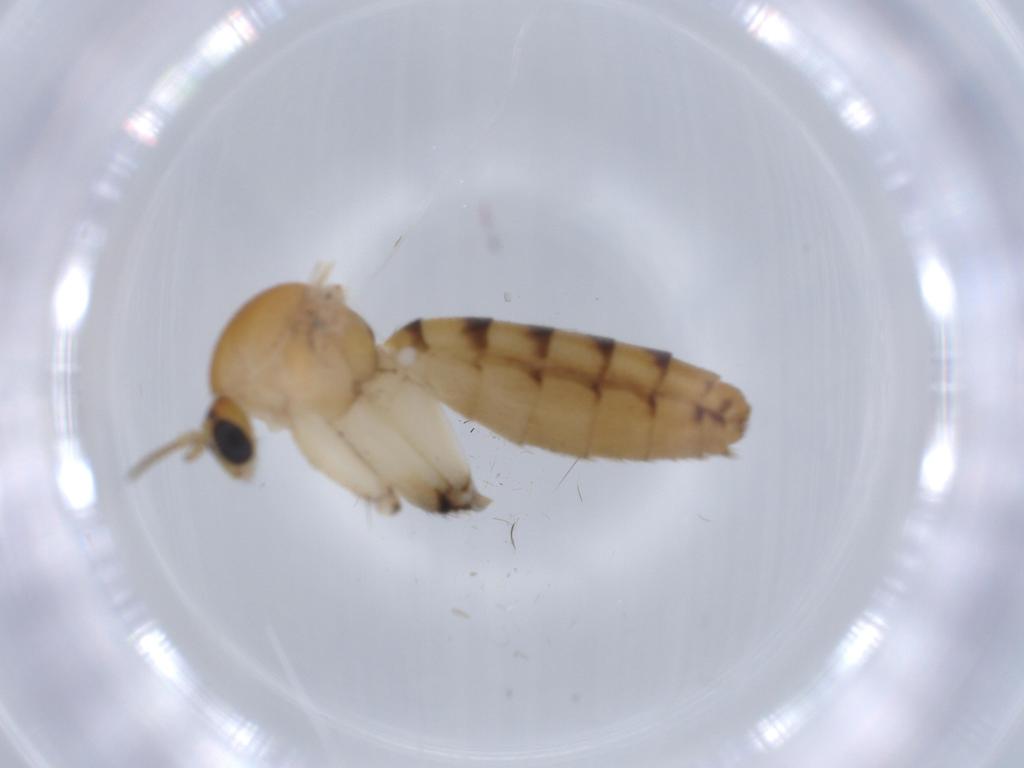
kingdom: Animalia
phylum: Arthropoda
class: Insecta
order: Diptera
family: Mycetophilidae
